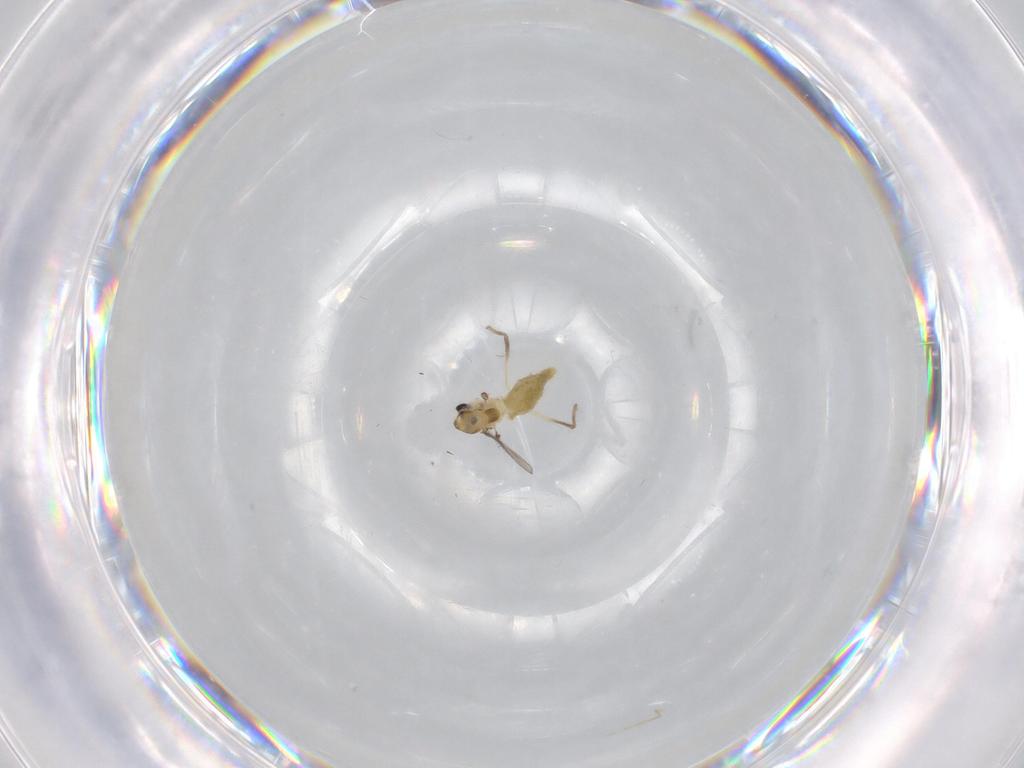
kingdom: Animalia
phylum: Arthropoda
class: Insecta
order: Diptera
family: Chironomidae
